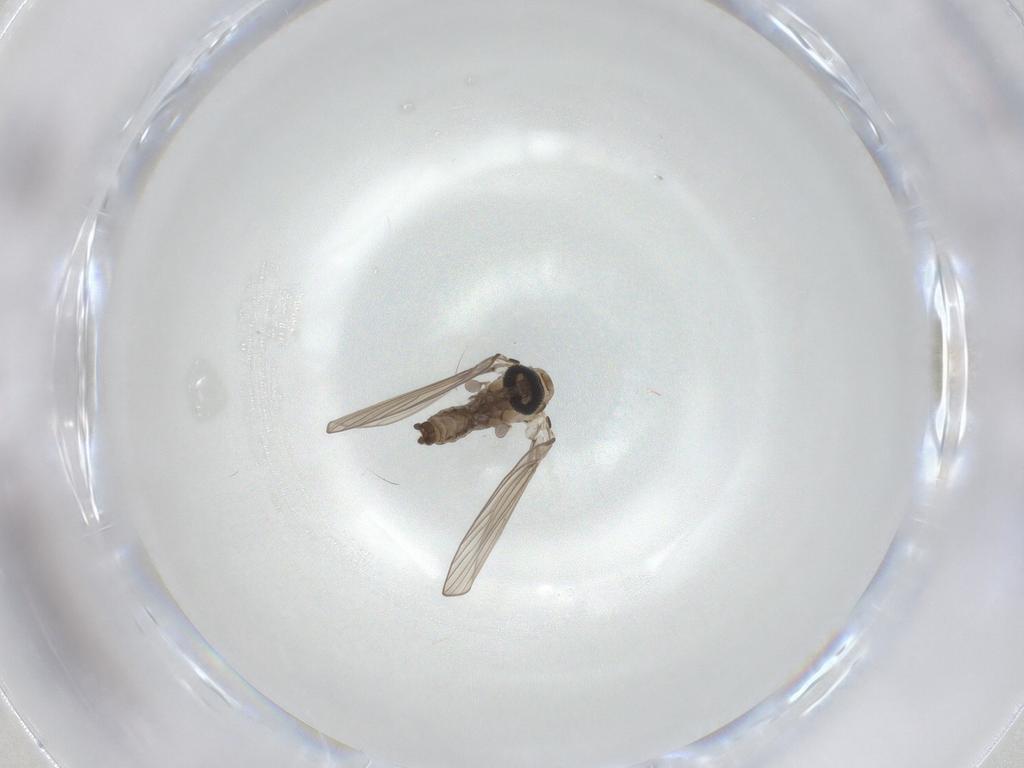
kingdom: Animalia
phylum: Arthropoda
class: Insecta
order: Diptera
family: Psychodidae
